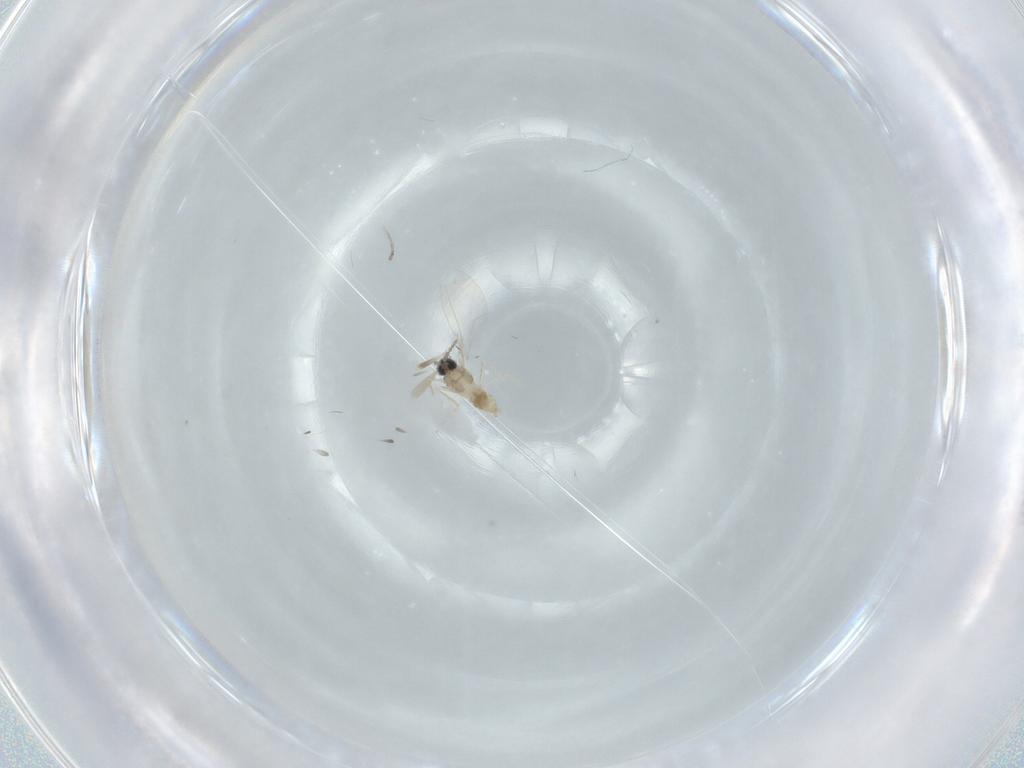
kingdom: Animalia
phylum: Arthropoda
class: Insecta
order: Diptera
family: Cecidomyiidae
